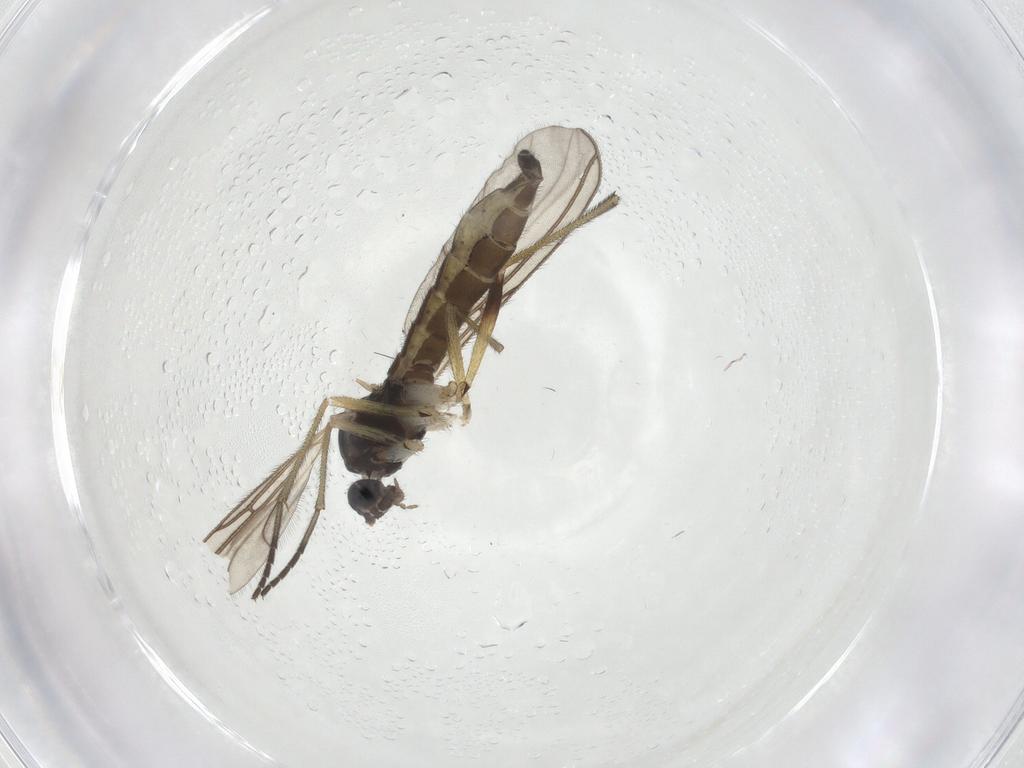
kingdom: Animalia
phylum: Arthropoda
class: Insecta
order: Diptera
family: Sciaridae
